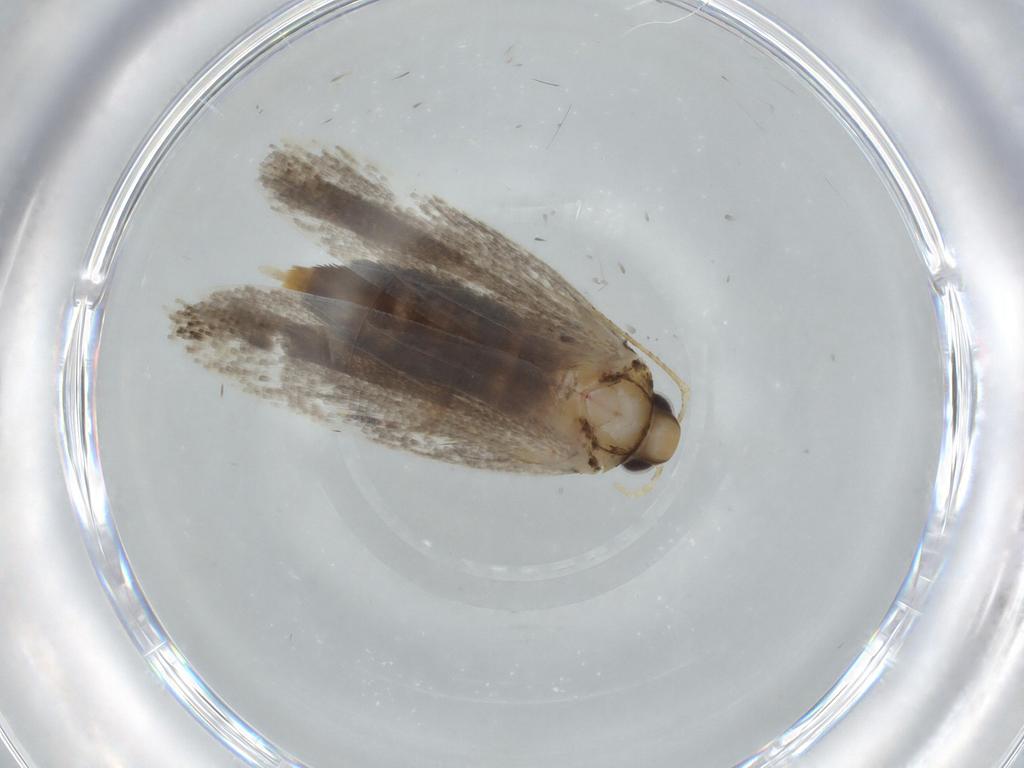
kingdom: Animalia
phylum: Arthropoda
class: Insecta
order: Lepidoptera
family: Gelechiidae
